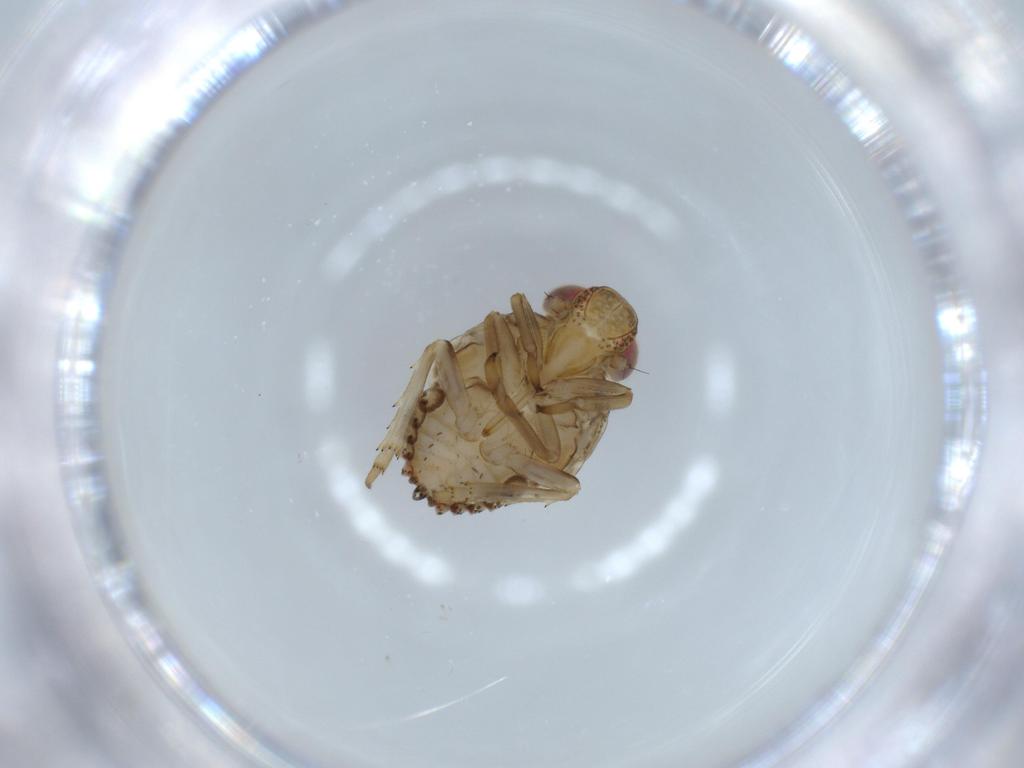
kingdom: Animalia
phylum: Arthropoda
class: Insecta
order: Hemiptera
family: Issidae
